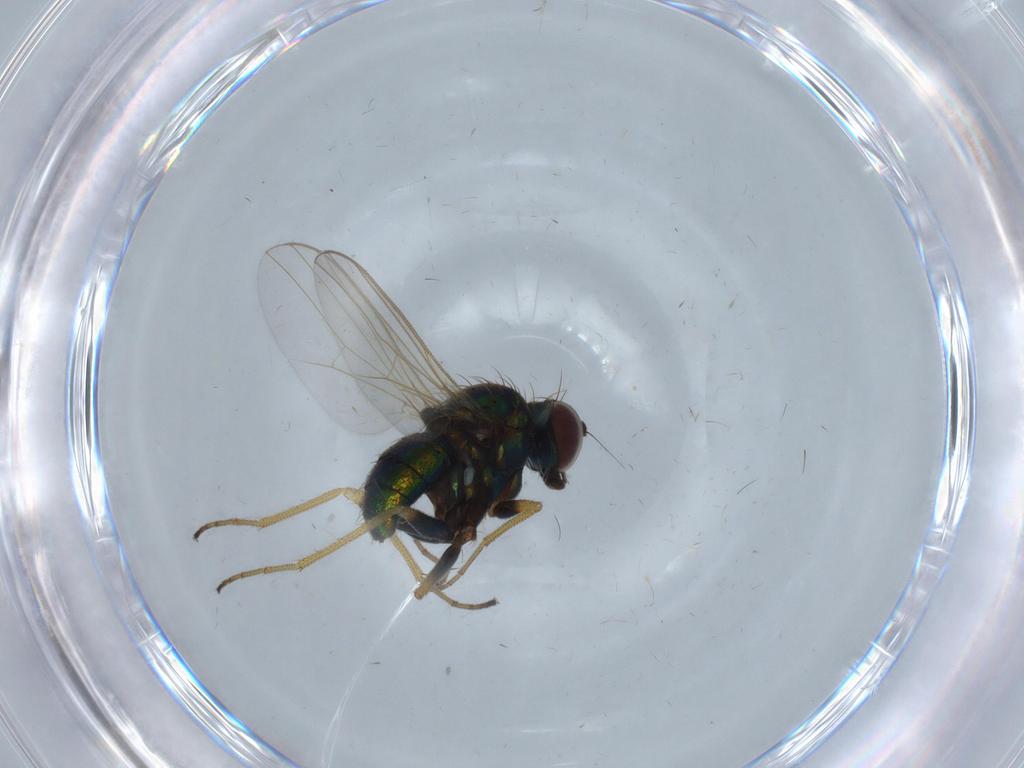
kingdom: Animalia
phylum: Arthropoda
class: Insecta
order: Diptera
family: Dolichopodidae
